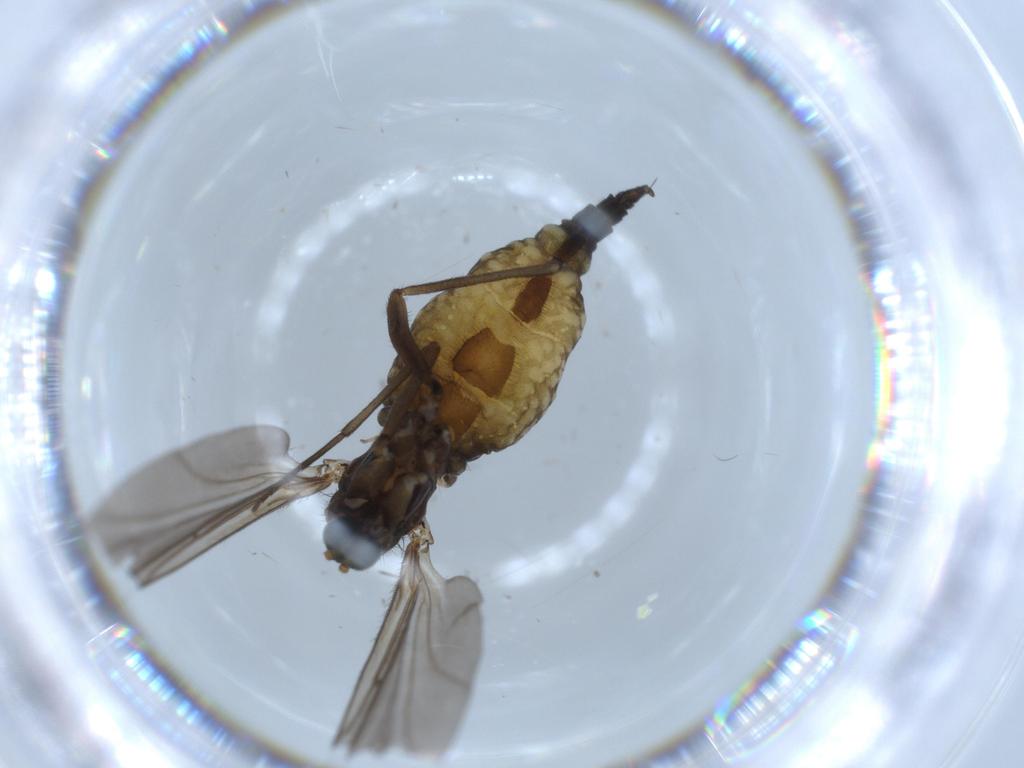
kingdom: Animalia
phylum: Arthropoda
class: Insecta
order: Diptera
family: Sciaridae
